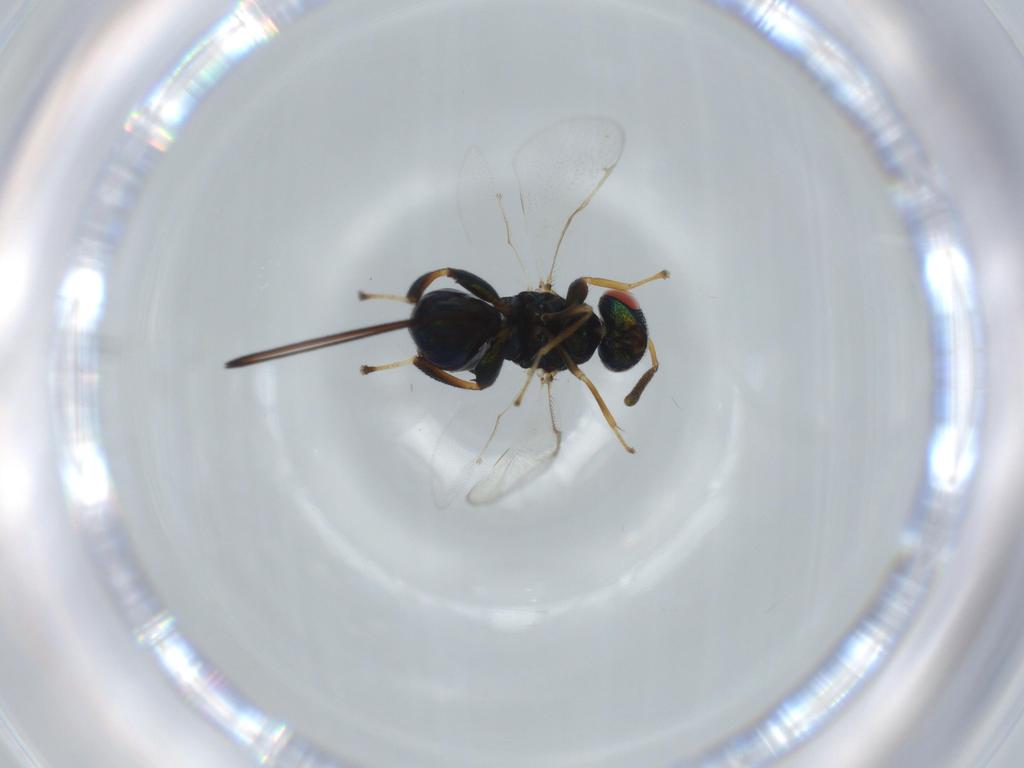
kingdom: Animalia
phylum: Arthropoda
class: Insecta
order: Hymenoptera
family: Torymidae
